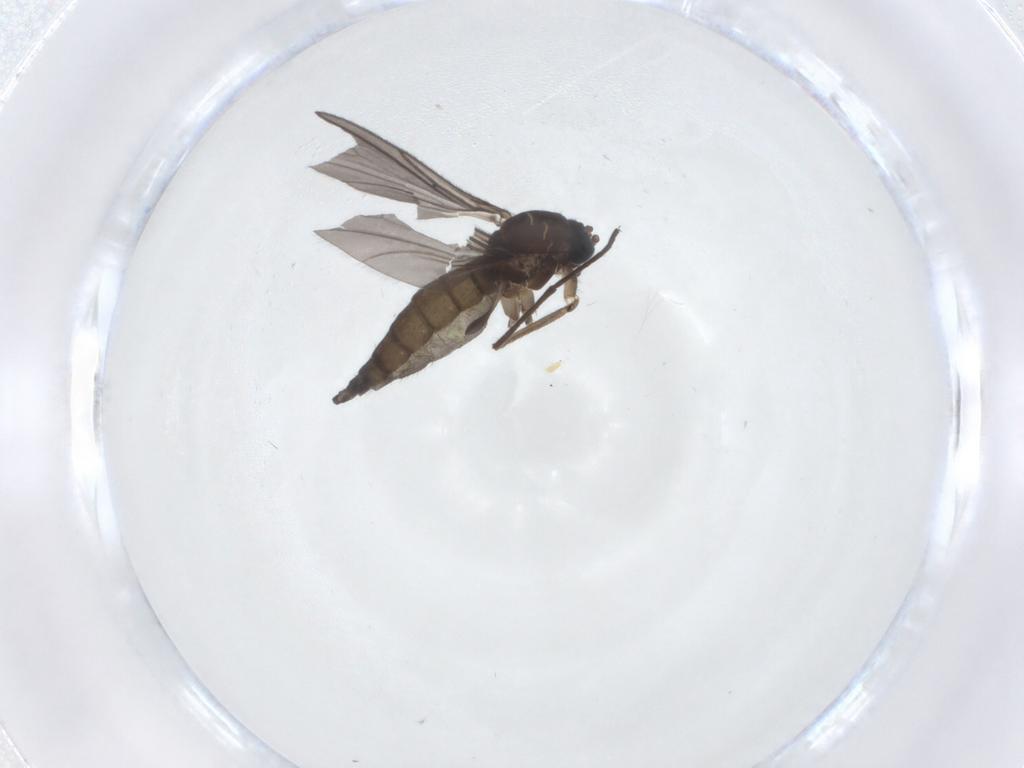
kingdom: Animalia
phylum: Arthropoda
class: Insecta
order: Diptera
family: Sciaridae
